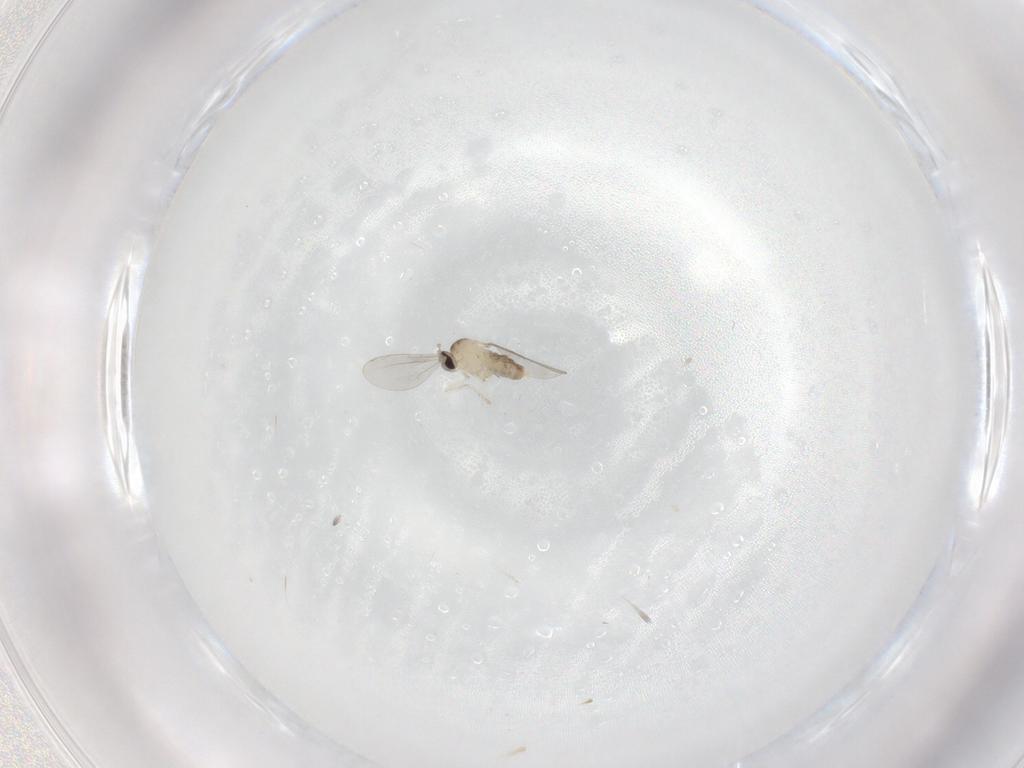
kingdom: Animalia
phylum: Arthropoda
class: Insecta
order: Diptera
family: Cecidomyiidae
